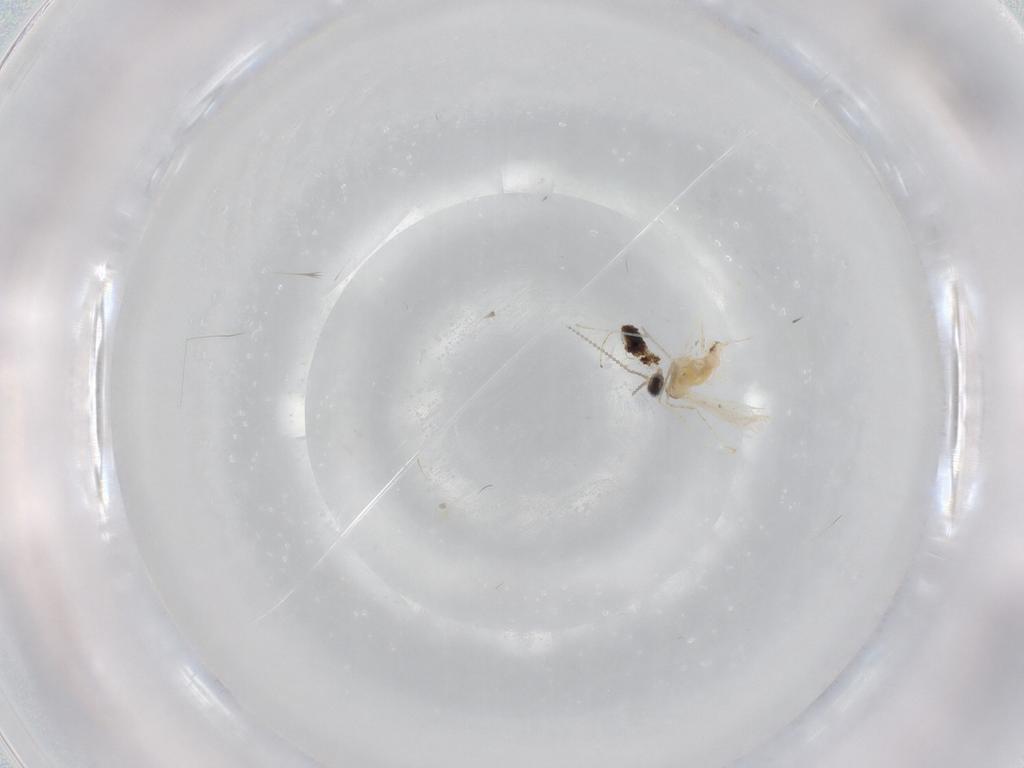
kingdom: Animalia
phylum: Arthropoda
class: Insecta
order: Diptera
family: Cecidomyiidae
